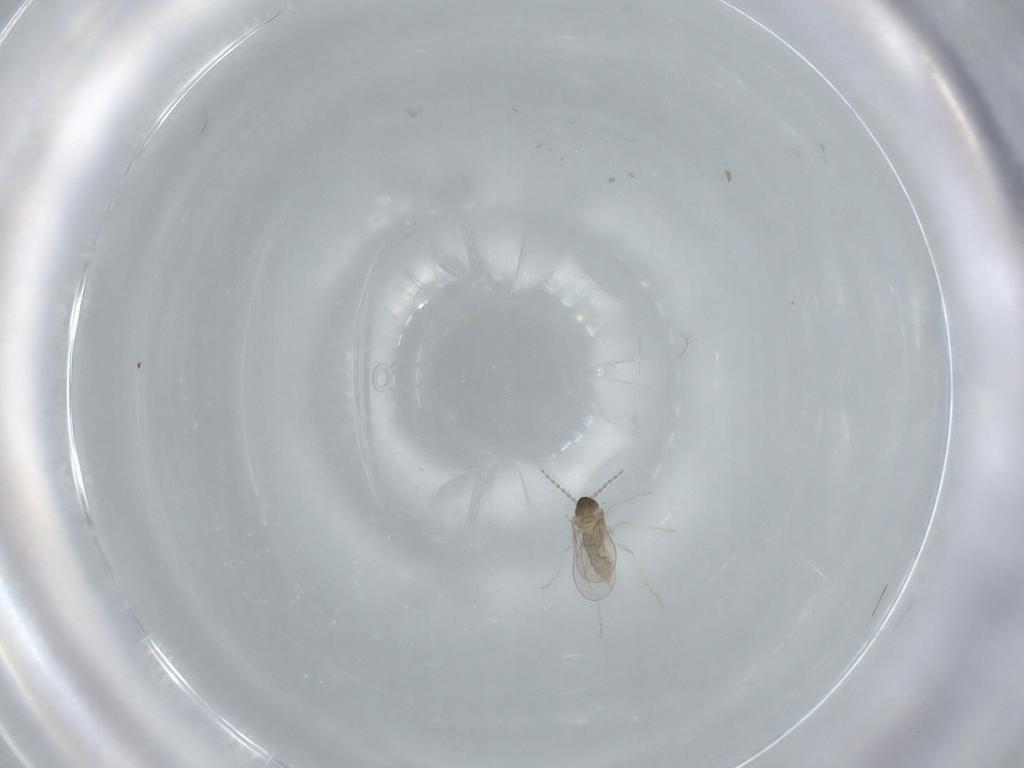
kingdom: Animalia
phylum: Arthropoda
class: Insecta
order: Diptera
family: Cecidomyiidae
